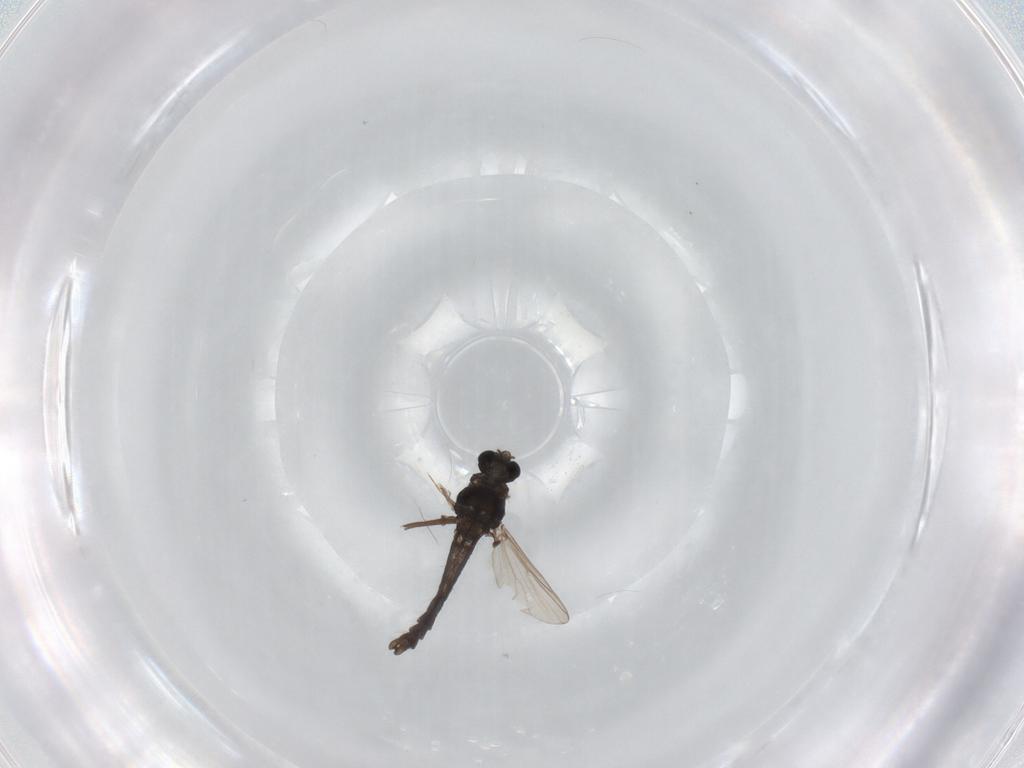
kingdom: Animalia
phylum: Arthropoda
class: Insecta
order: Diptera
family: Chironomidae
